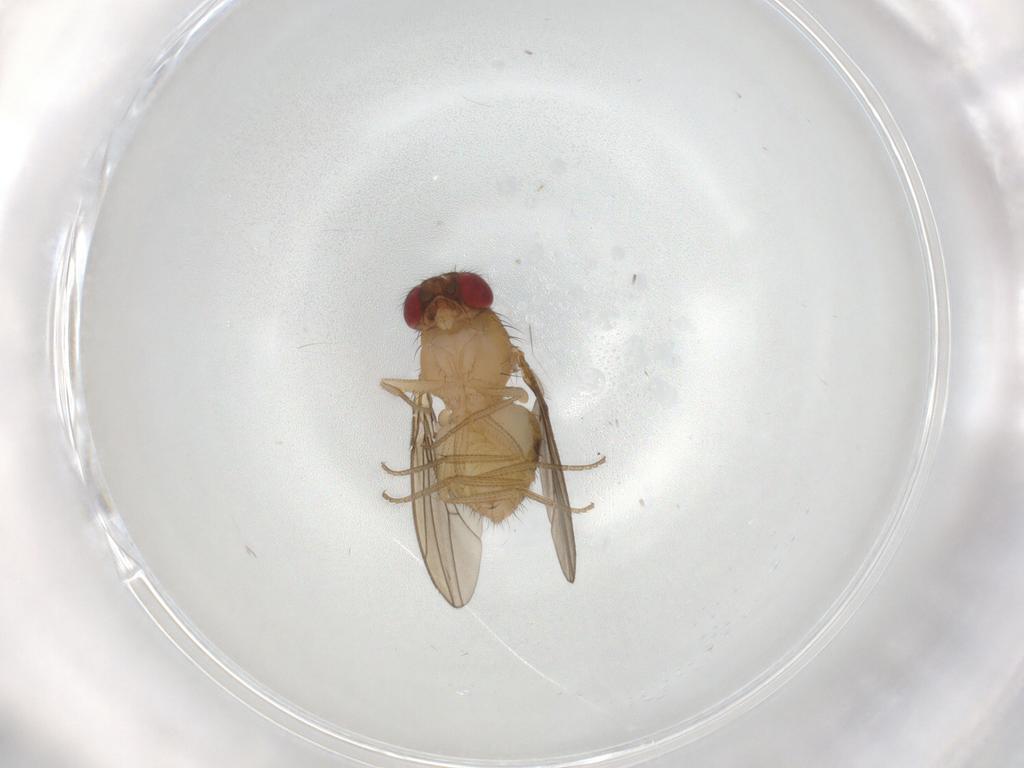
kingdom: Animalia
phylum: Arthropoda
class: Insecta
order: Diptera
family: Drosophilidae
